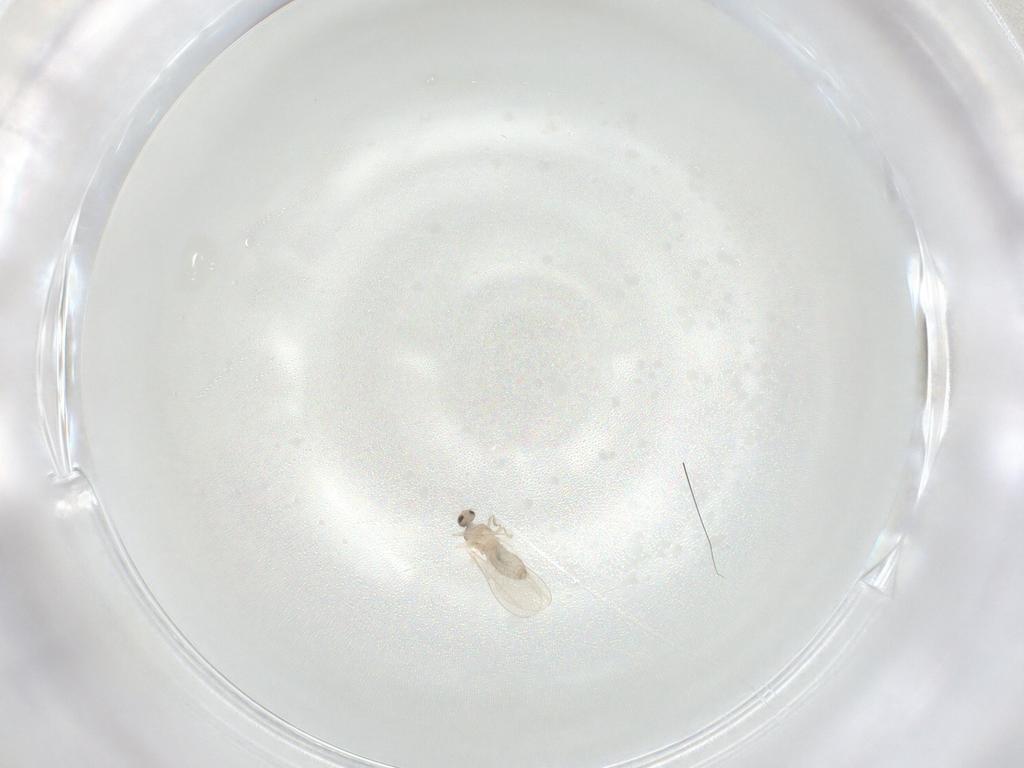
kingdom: Animalia
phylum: Arthropoda
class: Insecta
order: Diptera
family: Cecidomyiidae
